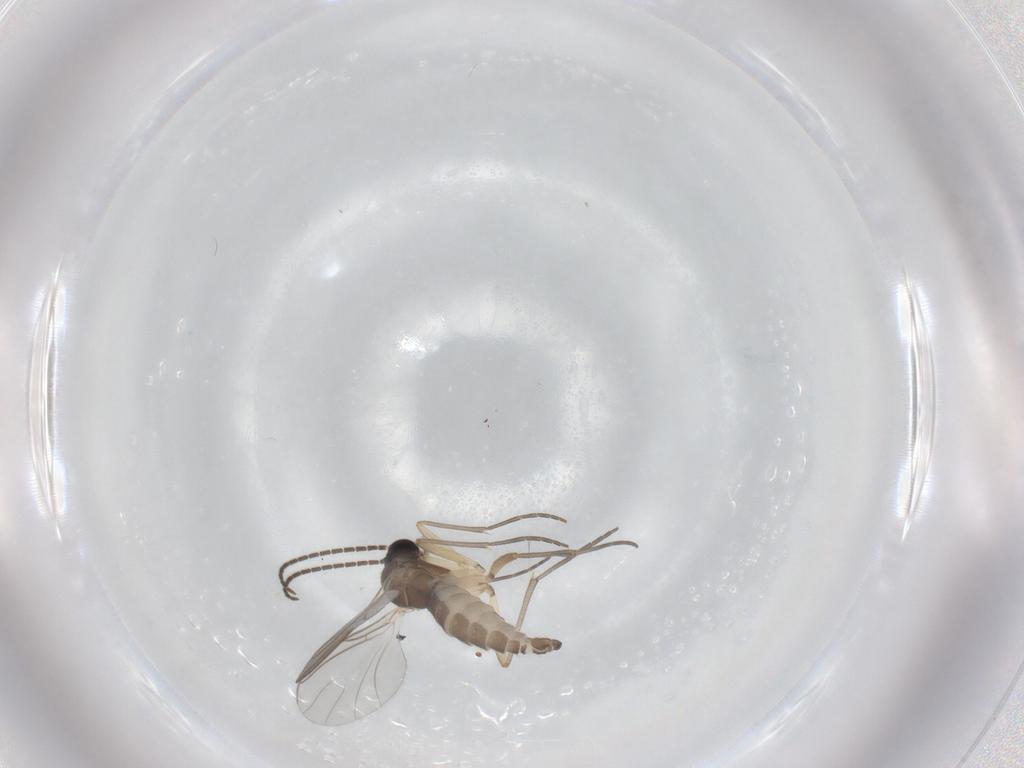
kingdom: Animalia
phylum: Arthropoda
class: Insecta
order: Diptera
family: Sciaridae
